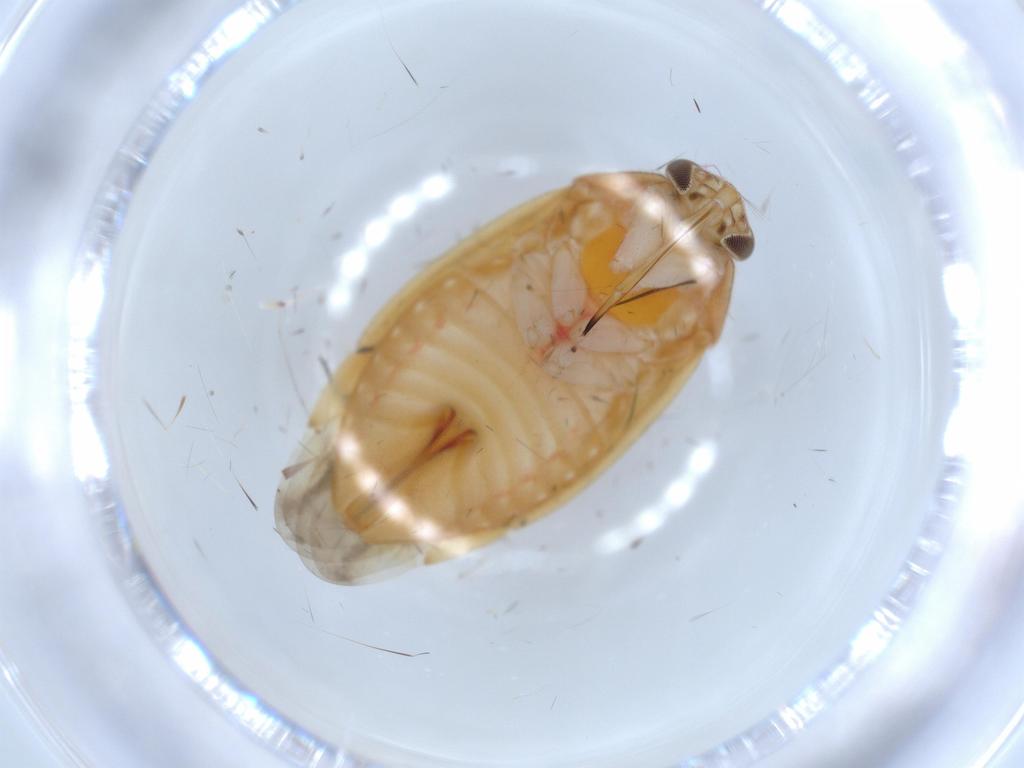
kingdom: Animalia
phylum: Arthropoda
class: Insecta
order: Hemiptera
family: Miridae
